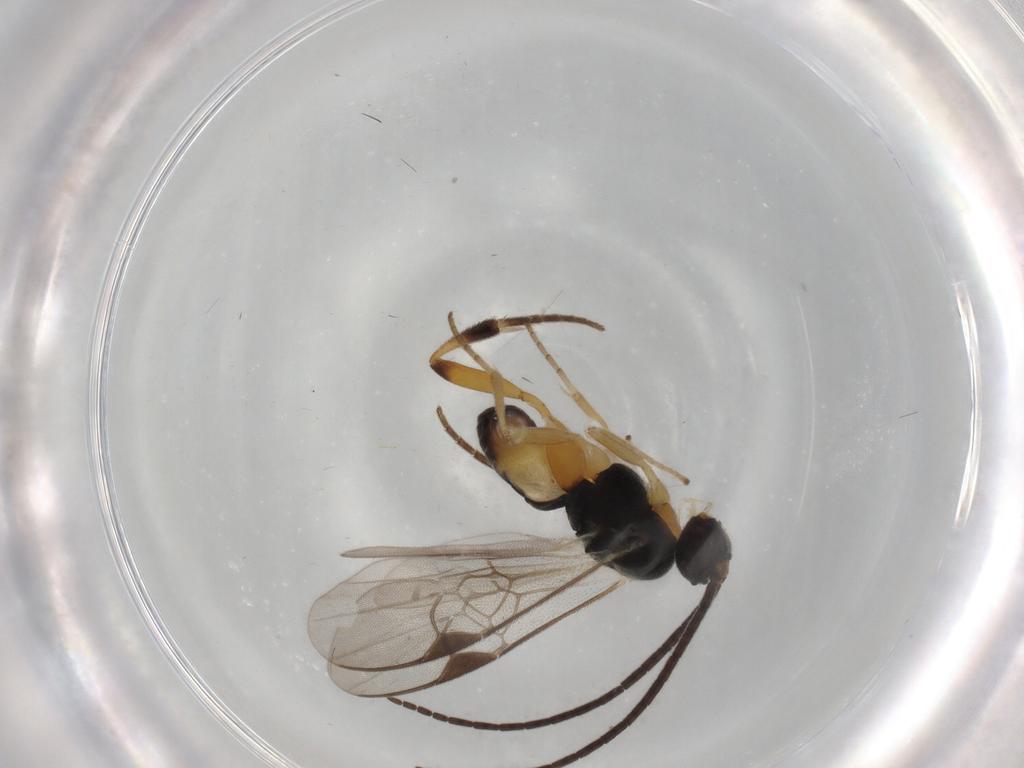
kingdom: Animalia
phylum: Arthropoda
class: Insecta
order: Hymenoptera
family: Braconidae
